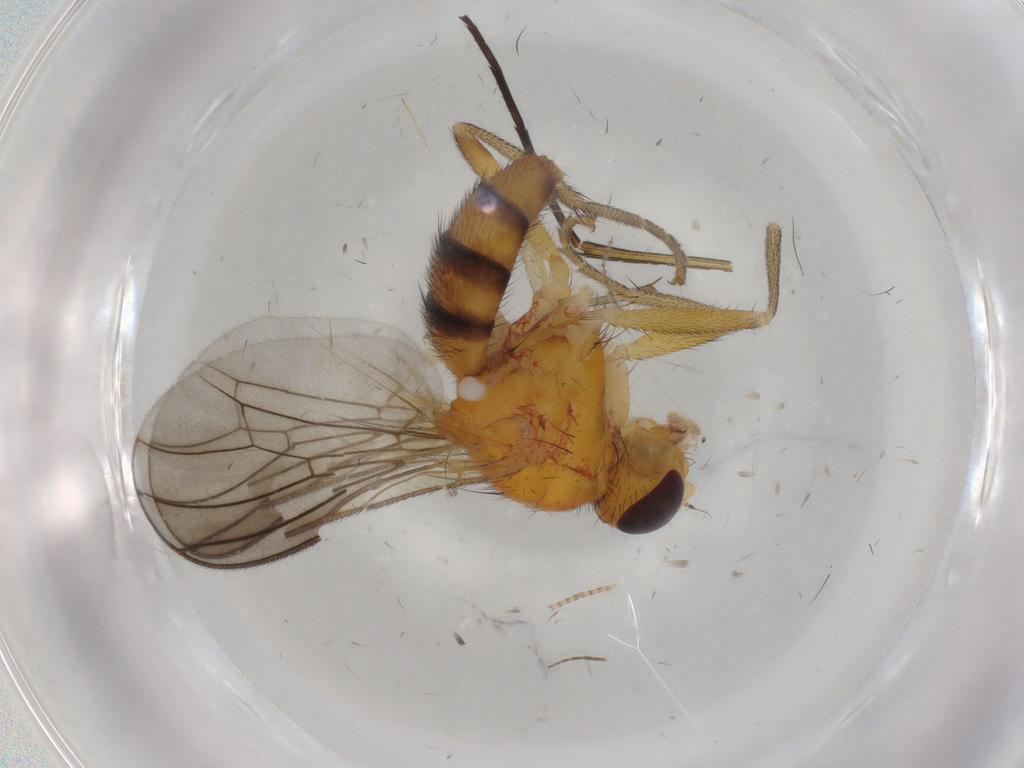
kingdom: Animalia
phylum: Arthropoda
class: Insecta
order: Diptera
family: Scathophagidae
